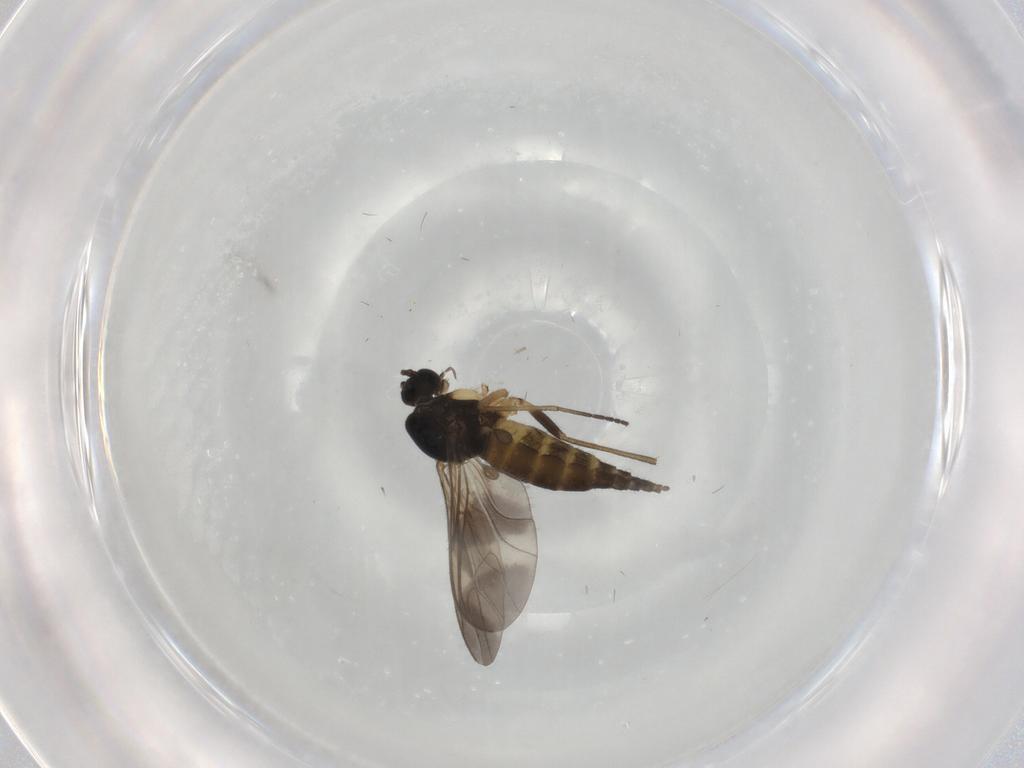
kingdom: Animalia
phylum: Arthropoda
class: Insecta
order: Diptera
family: Sciaridae
